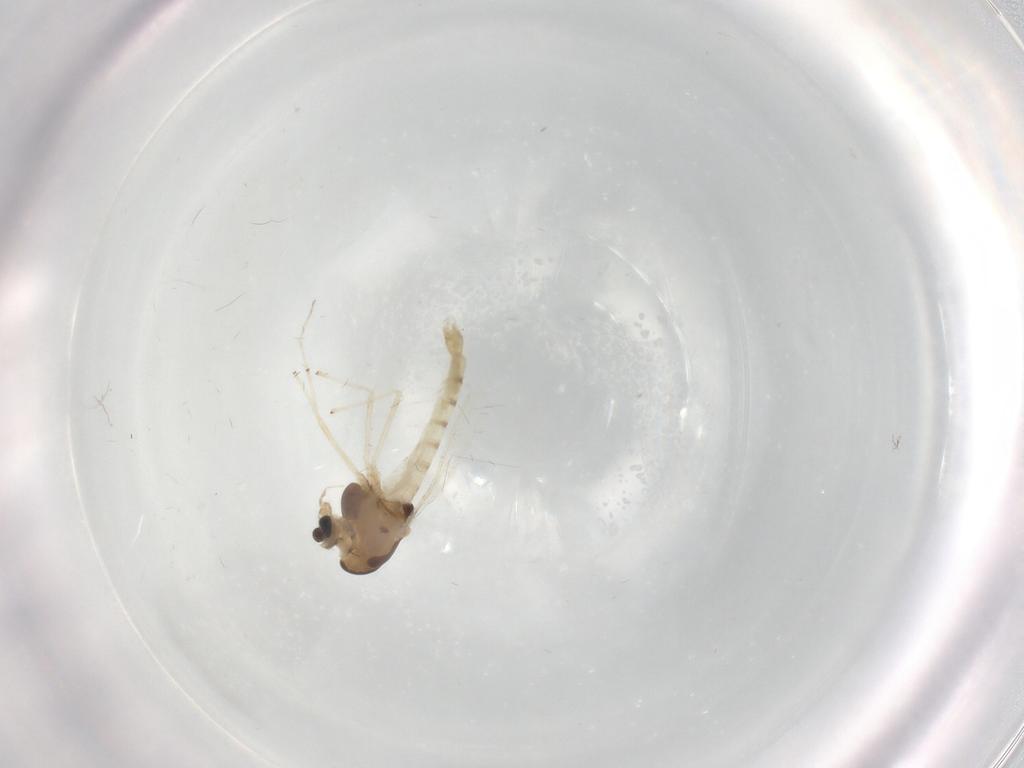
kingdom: Animalia
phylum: Arthropoda
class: Insecta
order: Diptera
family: Chironomidae
